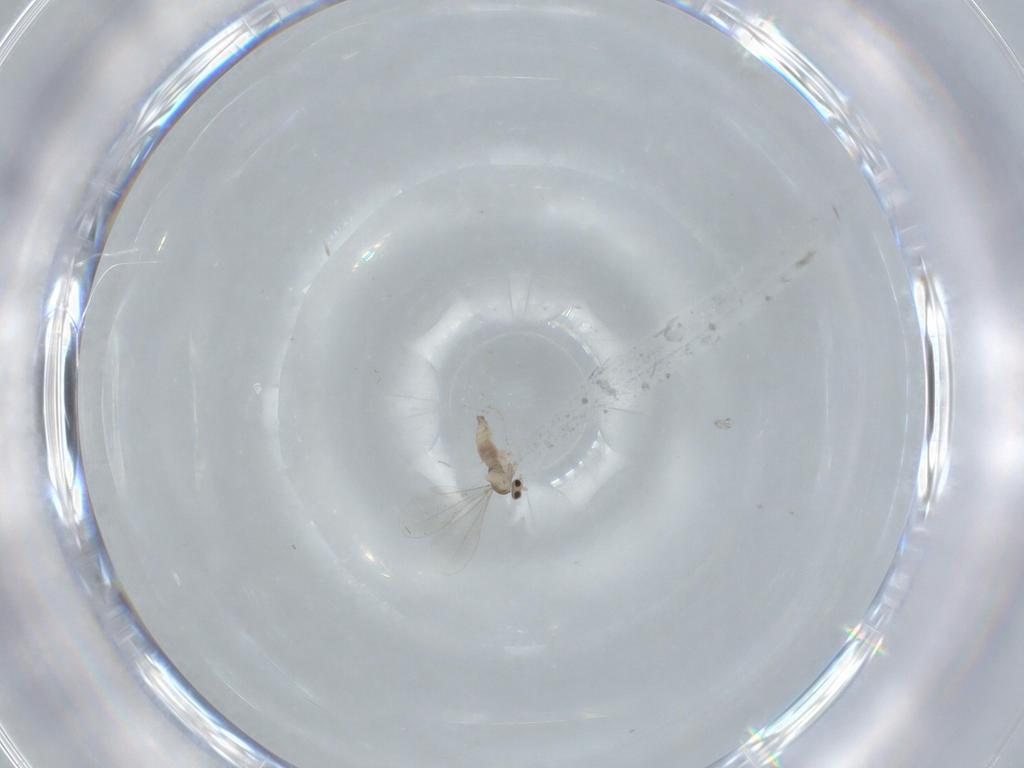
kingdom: Animalia
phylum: Arthropoda
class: Insecta
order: Diptera
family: Cecidomyiidae
